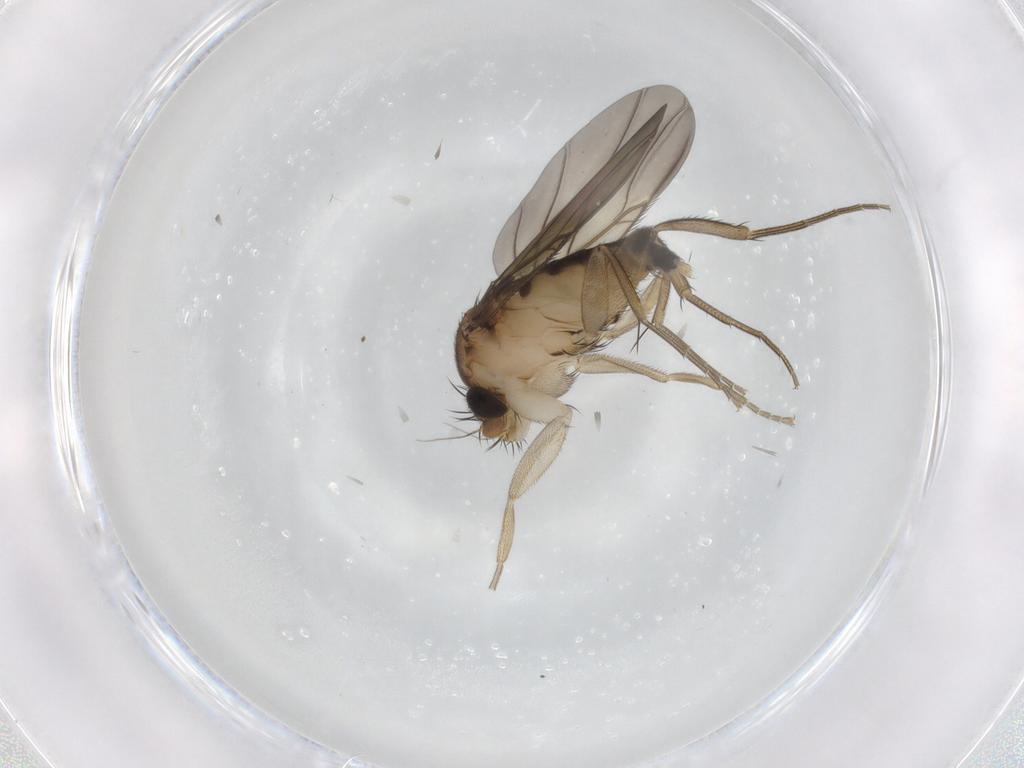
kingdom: Animalia
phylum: Arthropoda
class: Insecta
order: Diptera
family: Phoridae
